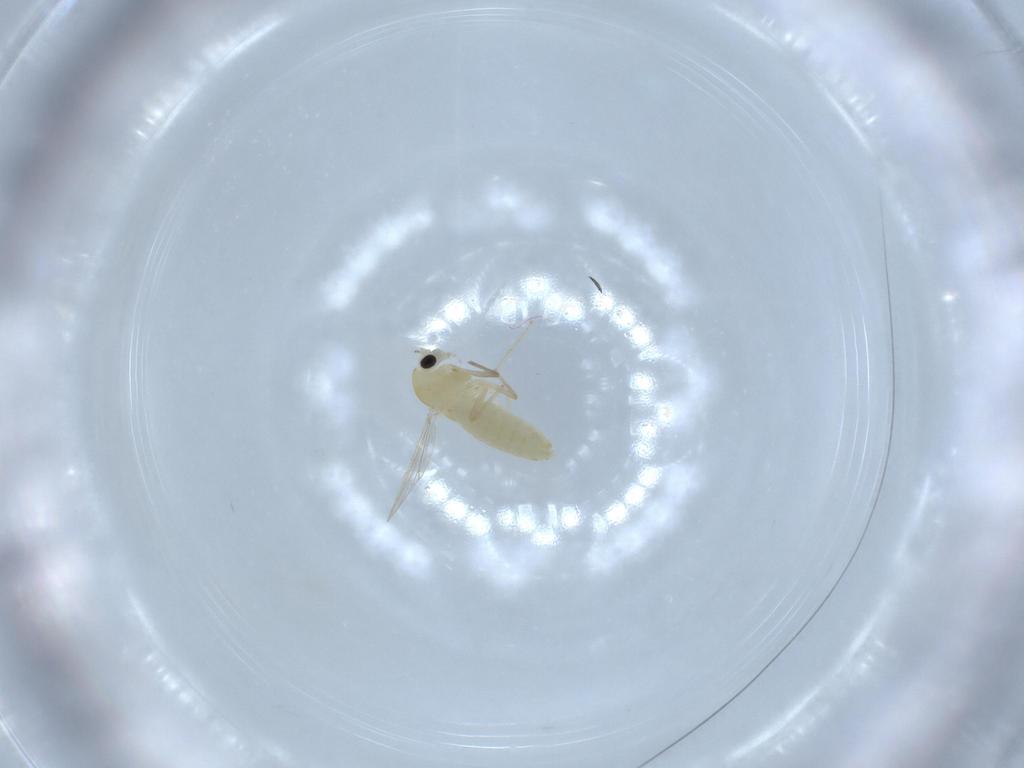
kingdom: Animalia
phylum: Arthropoda
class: Insecta
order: Diptera
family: Chironomidae
